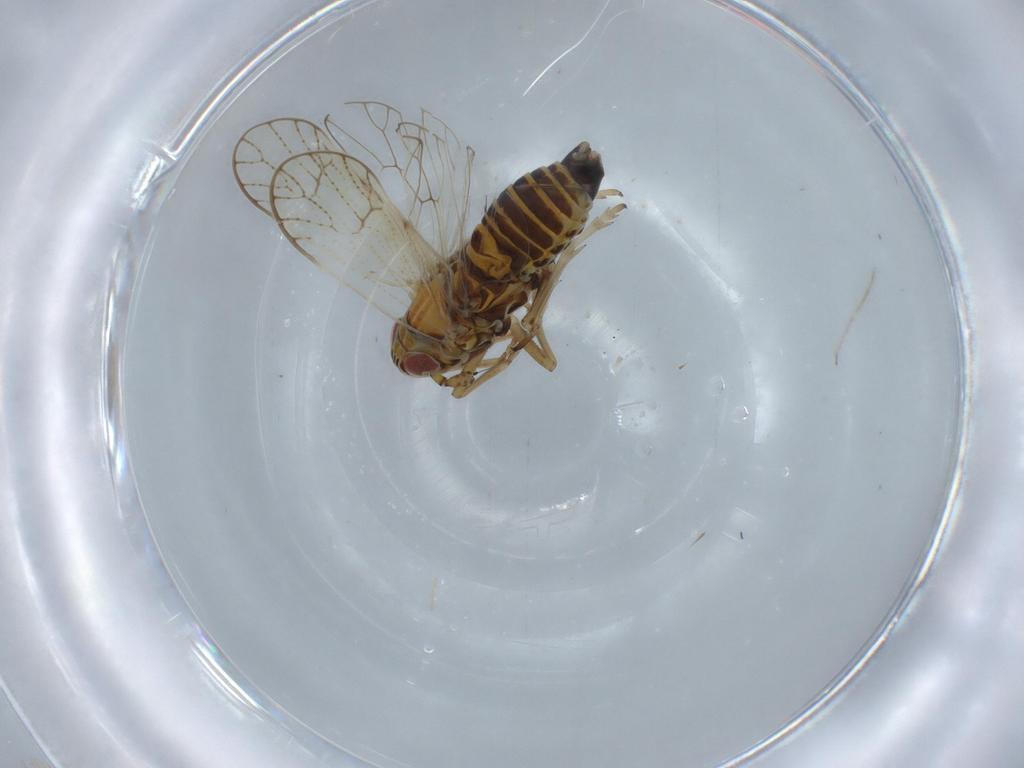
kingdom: Animalia
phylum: Arthropoda
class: Insecta
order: Hemiptera
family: Aphididae
